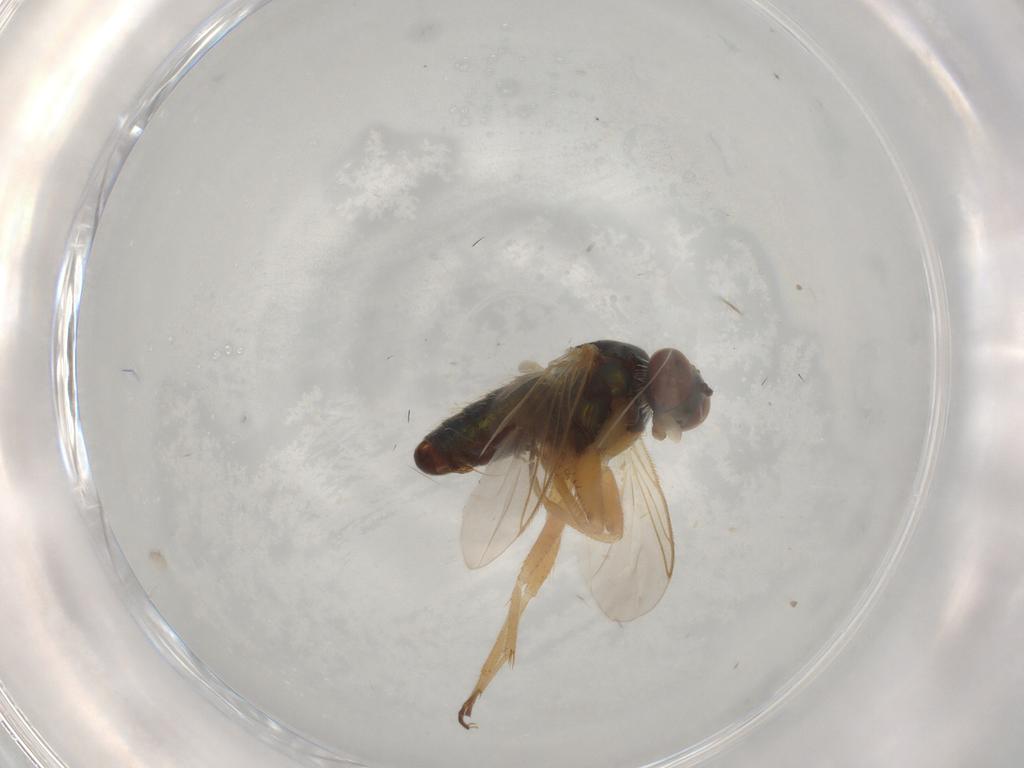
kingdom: Animalia
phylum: Arthropoda
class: Insecta
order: Diptera
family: Dolichopodidae
